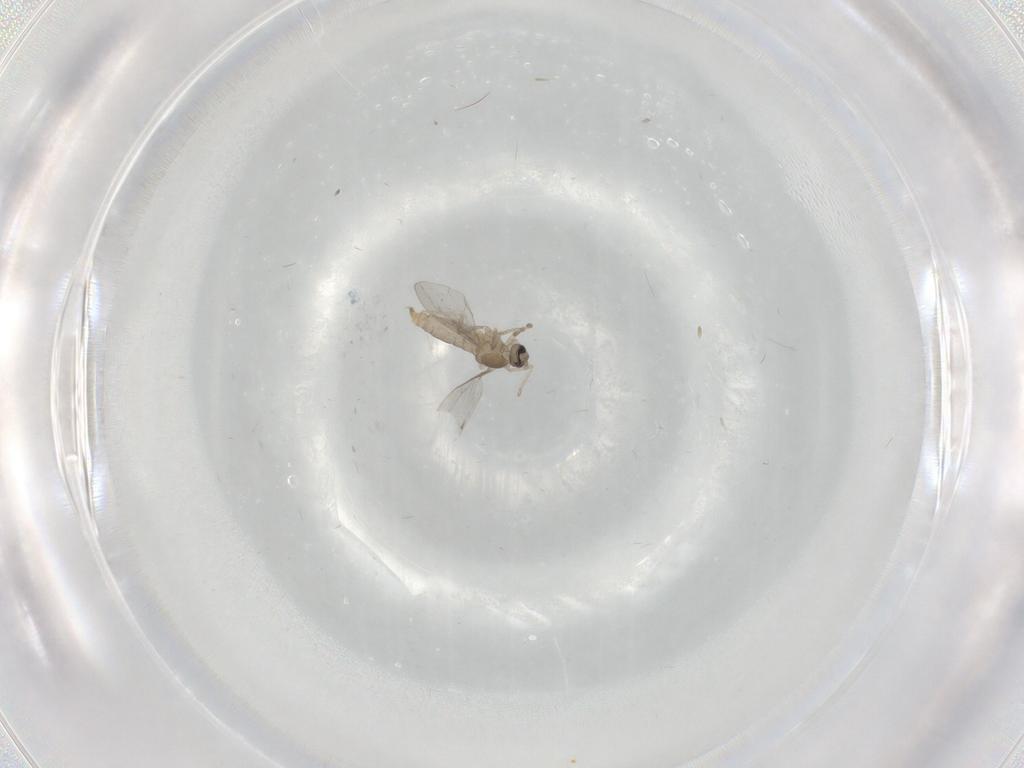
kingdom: Animalia
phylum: Arthropoda
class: Insecta
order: Diptera
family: Cecidomyiidae
